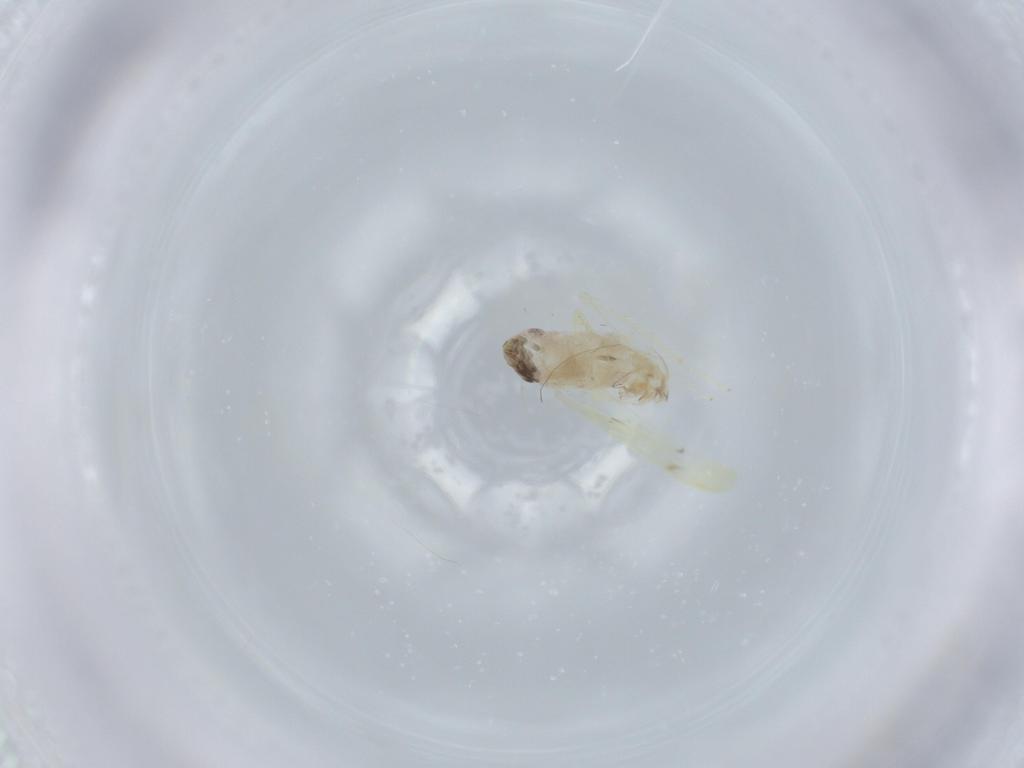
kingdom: Animalia
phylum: Arthropoda
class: Insecta
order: Hemiptera
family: Cicadellidae
